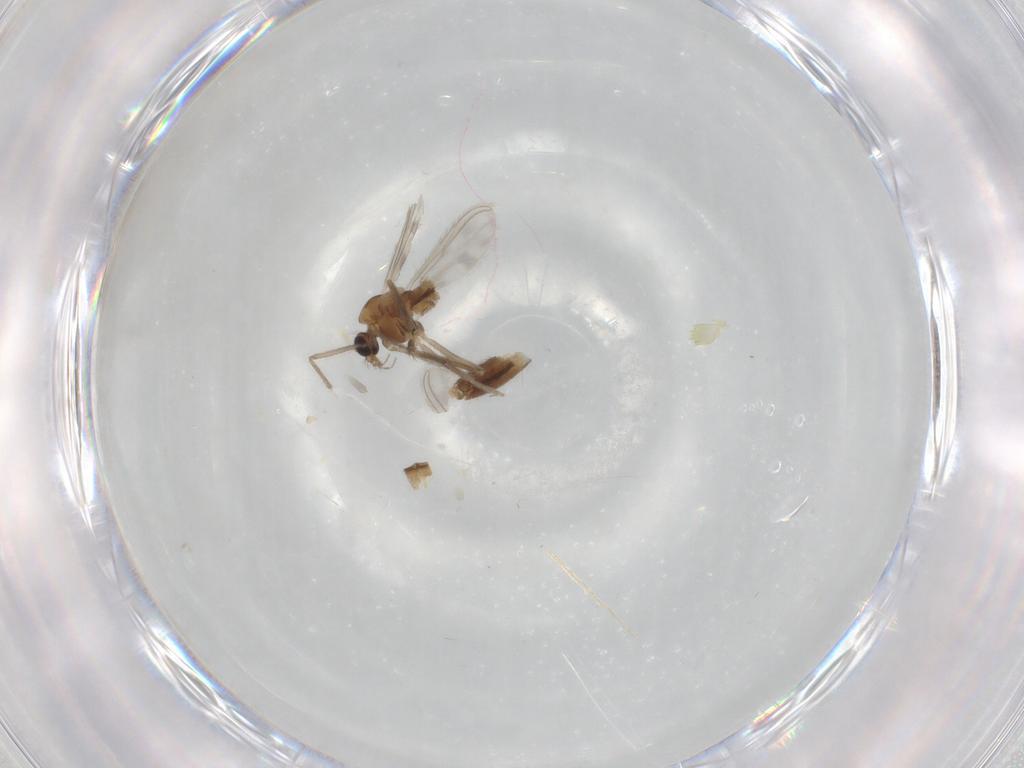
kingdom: Animalia
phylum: Arthropoda
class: Insecta
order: Diptera
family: Chironomidae
